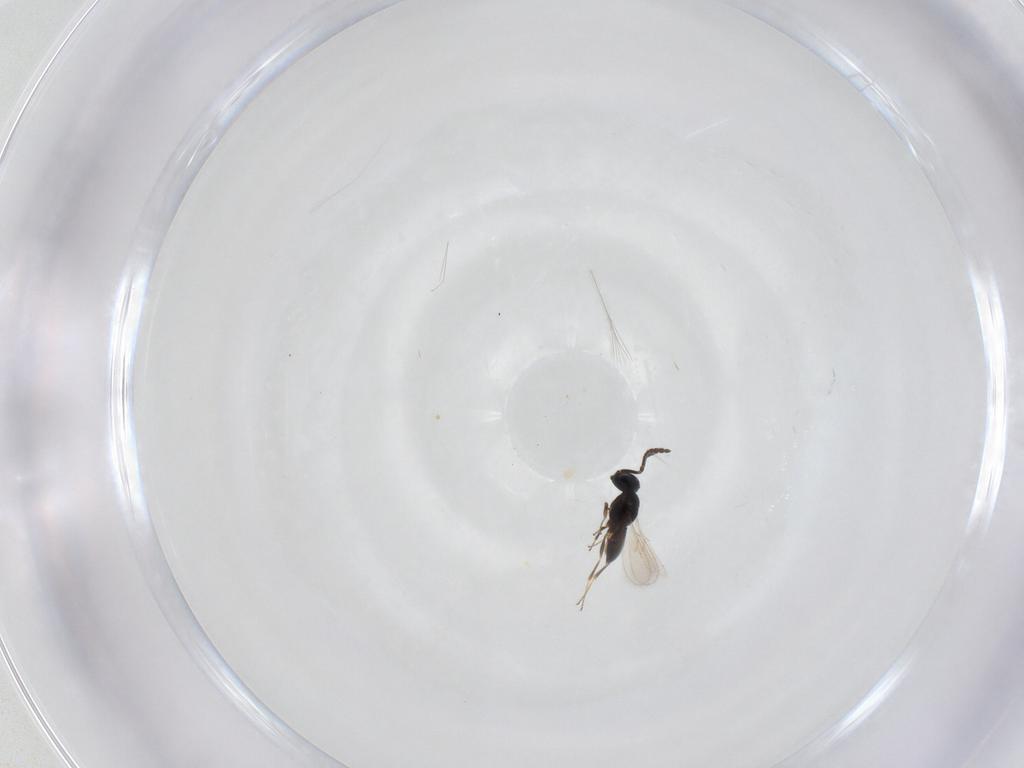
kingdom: Animalia
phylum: Arthropoda
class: Insecta
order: Hymenoptera
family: Scelionidae
